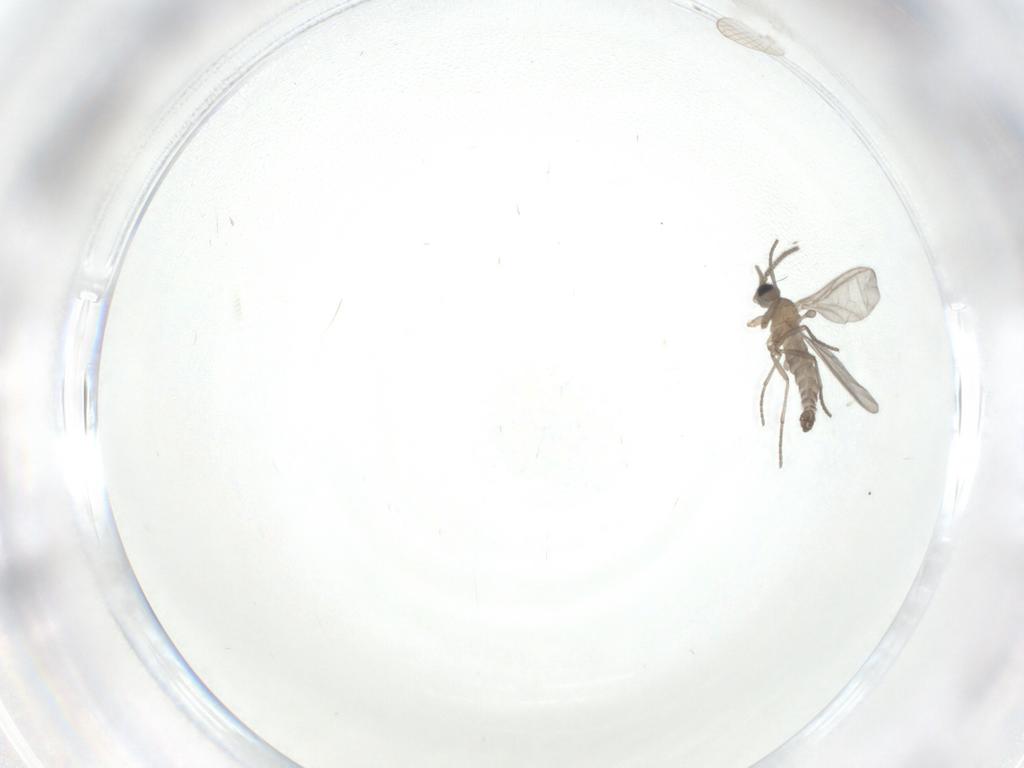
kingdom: Animalia
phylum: Arthropoda
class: Insecta
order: Diptera
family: Sciaridae
